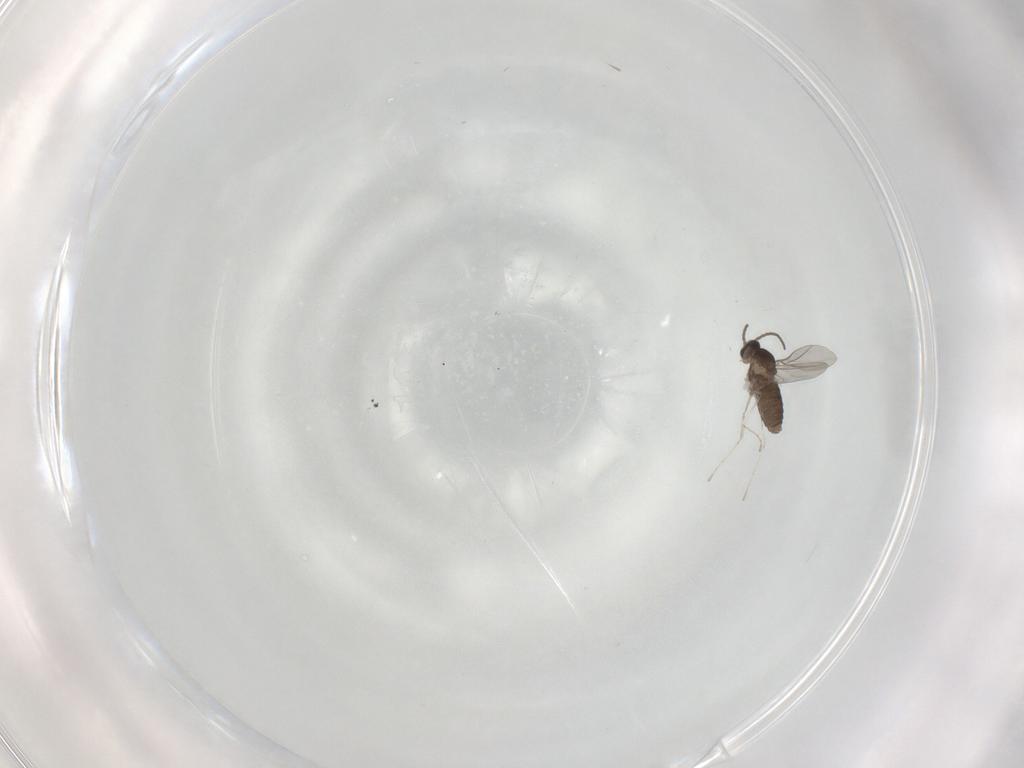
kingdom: Animalia
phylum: Arthropoda
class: Insecta
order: Diptera
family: Cecidomyiidae
